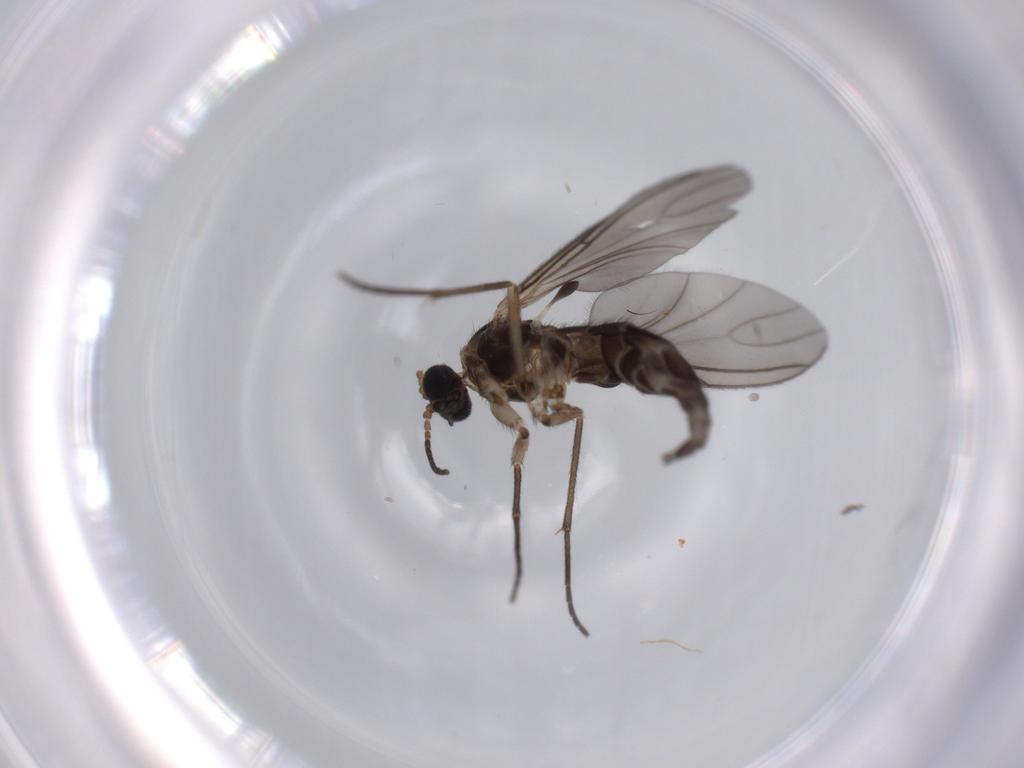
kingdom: Animalia
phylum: Arthropoda
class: Insecta
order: Diptera
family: Sciaridae
